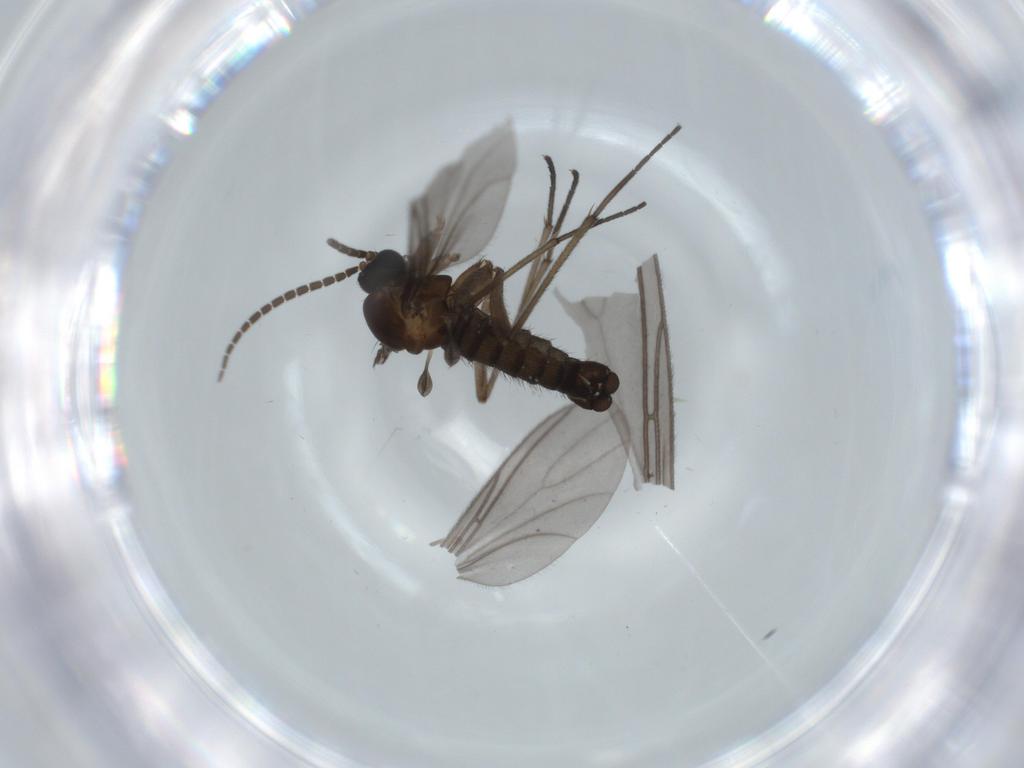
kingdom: Animalia
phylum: Arthropoda
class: Insecta
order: Diptera
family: Sciaridae
